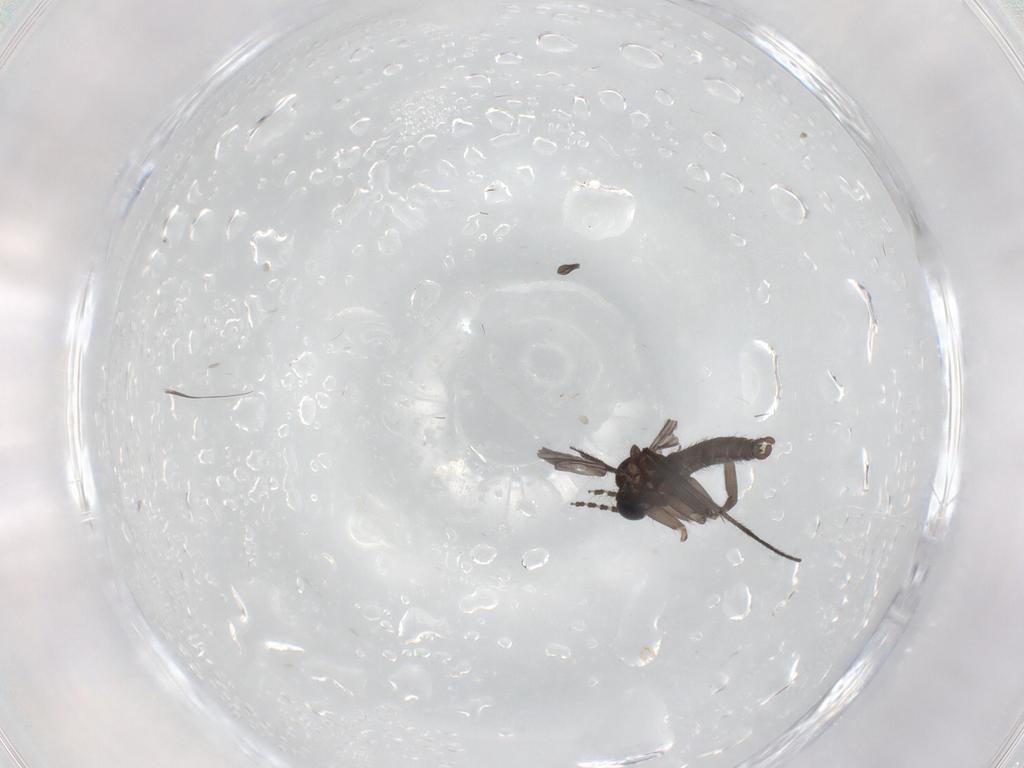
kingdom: Animalia
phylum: Arthropoda
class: Insecta
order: Diptera
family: Sciaridae
